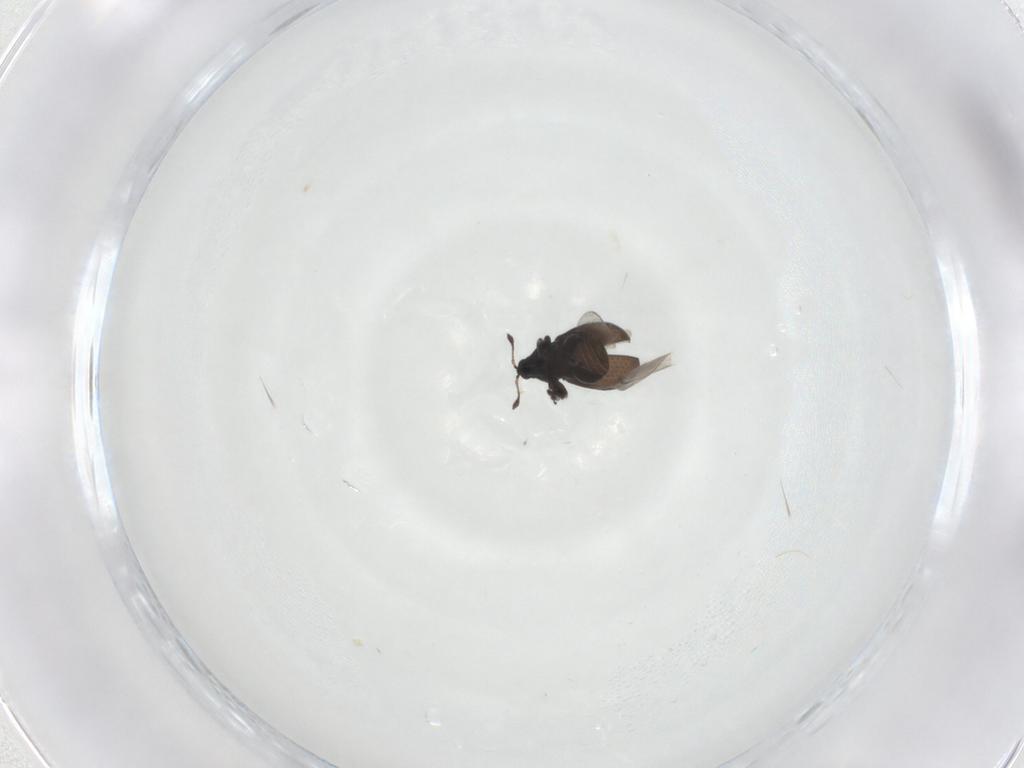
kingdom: Animalia
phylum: Arthropoda
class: Insecta
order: Coleoptera
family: Curculionidae
